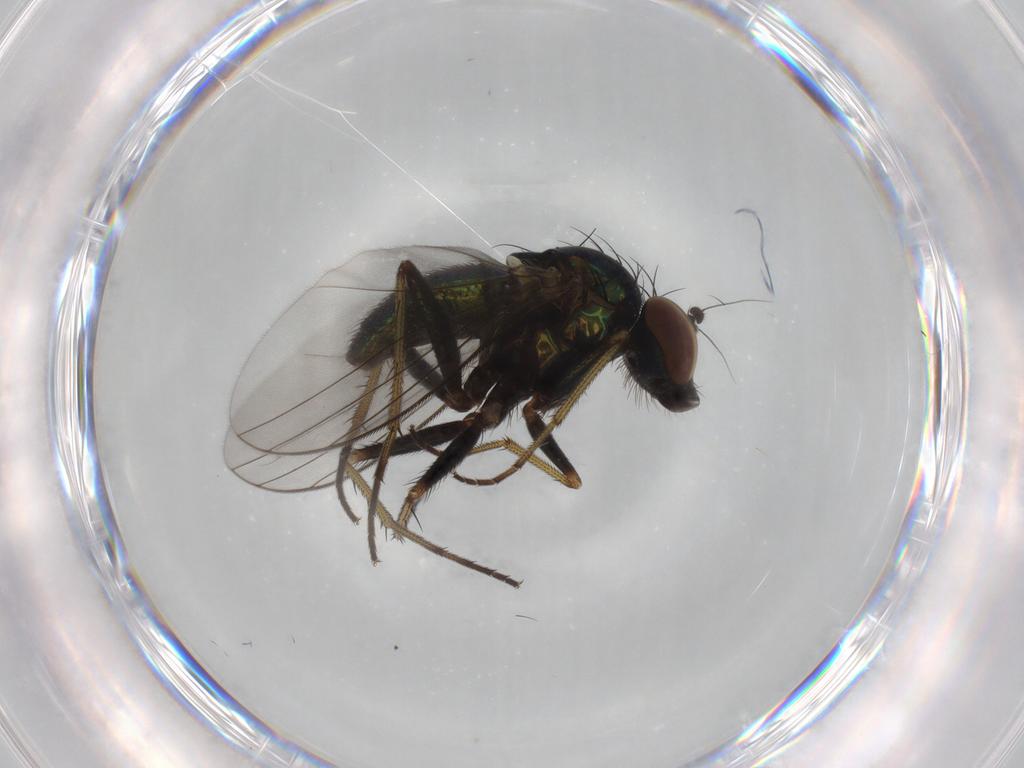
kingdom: Animalia
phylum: Arthropoda
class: Insecta
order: Diptera
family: Dolichopodidae
